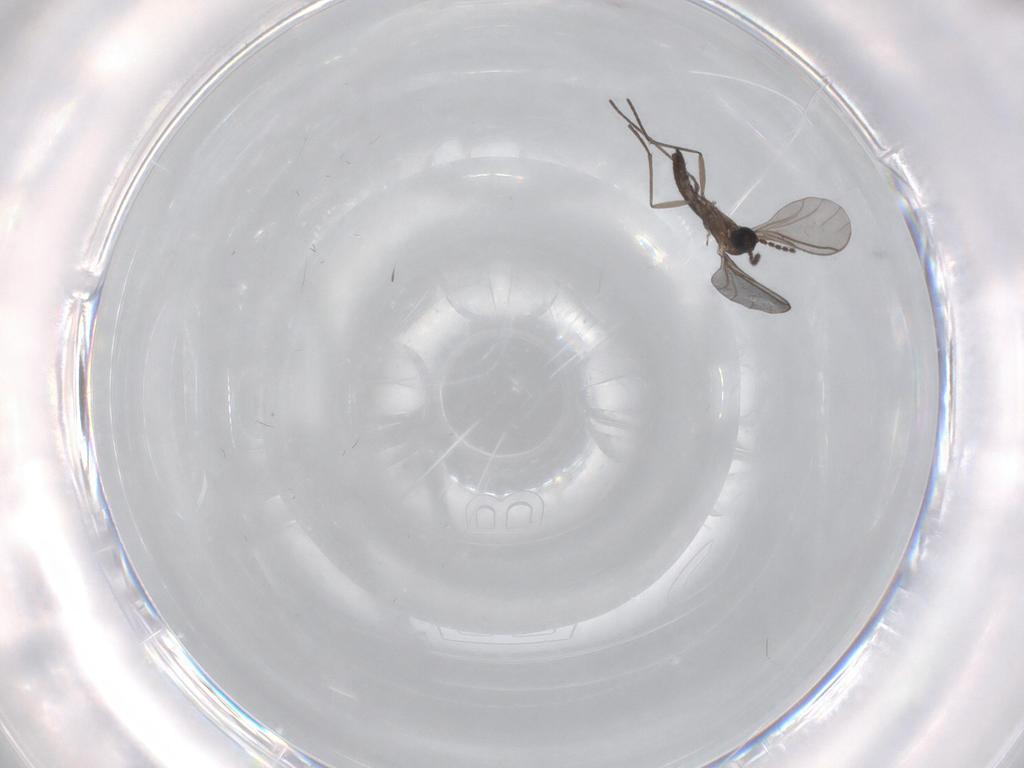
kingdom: Animalia
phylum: Arthropoda
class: Insecta
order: Diptera
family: Psychodidae
